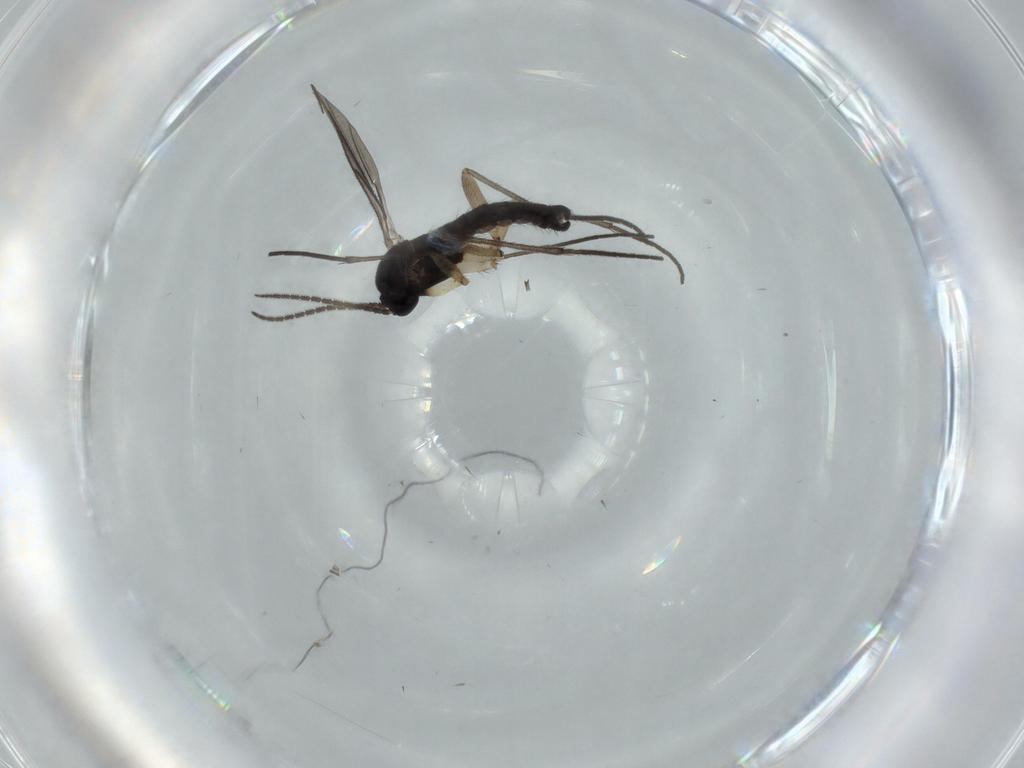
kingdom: Animalia
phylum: Arthropoda
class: Insecta
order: Diptera
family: Sciaridae
